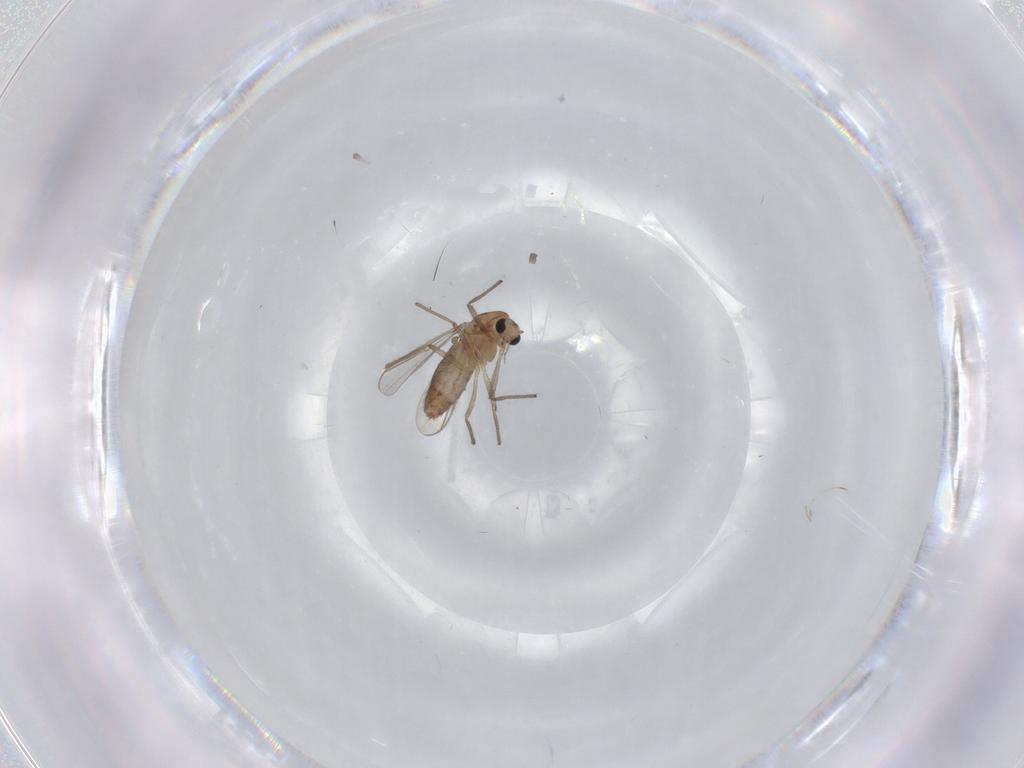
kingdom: Animalia
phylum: Arthropoda
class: Insecta
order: Diptera
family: Chironomidae
